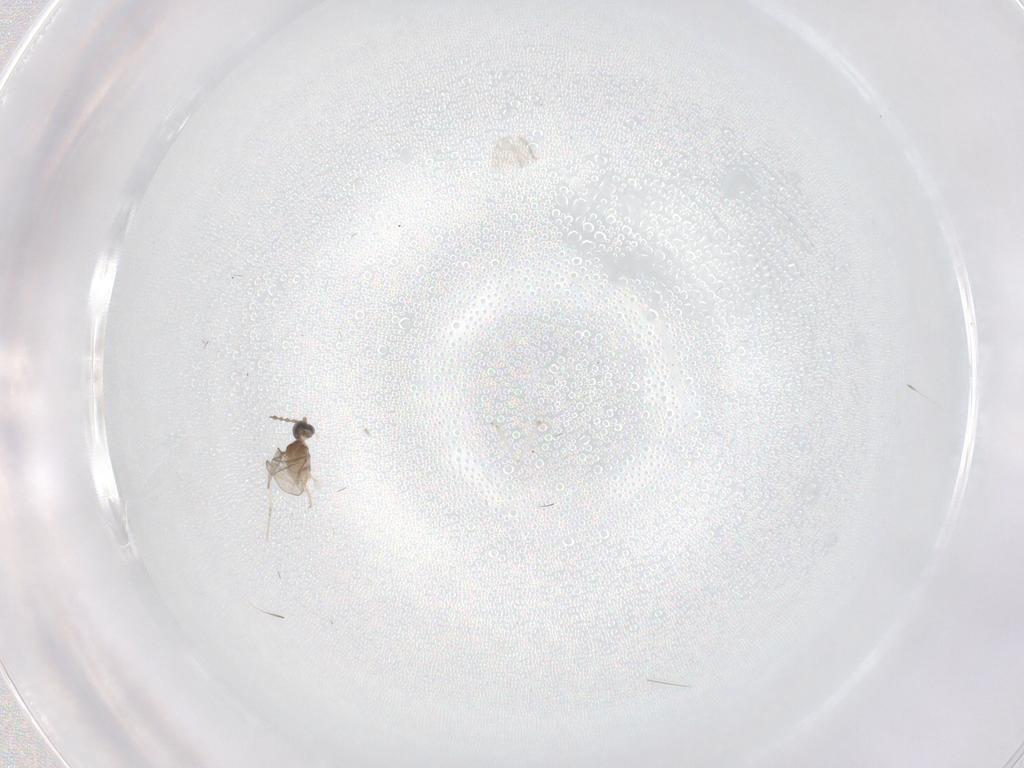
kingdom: Animalia
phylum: Arthropoda
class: Insecta
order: Diptera
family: Cecidomyiidae
